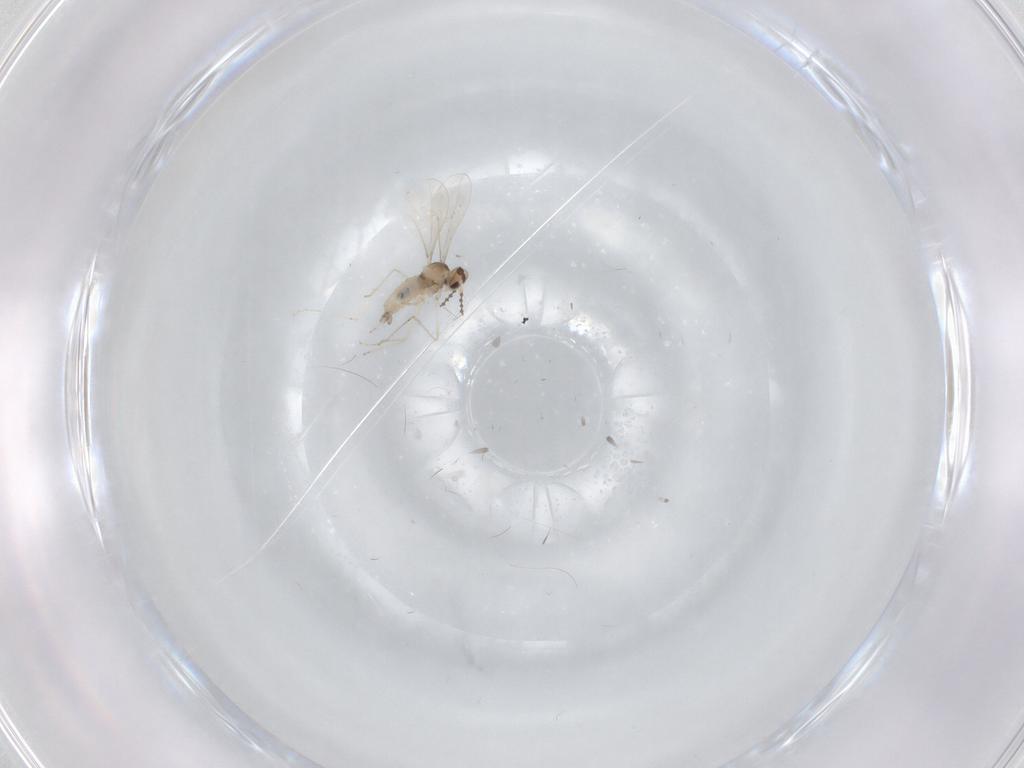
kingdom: Animalia
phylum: Arthropoda
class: Insecta
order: Diptera
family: Cecidomyiidae
